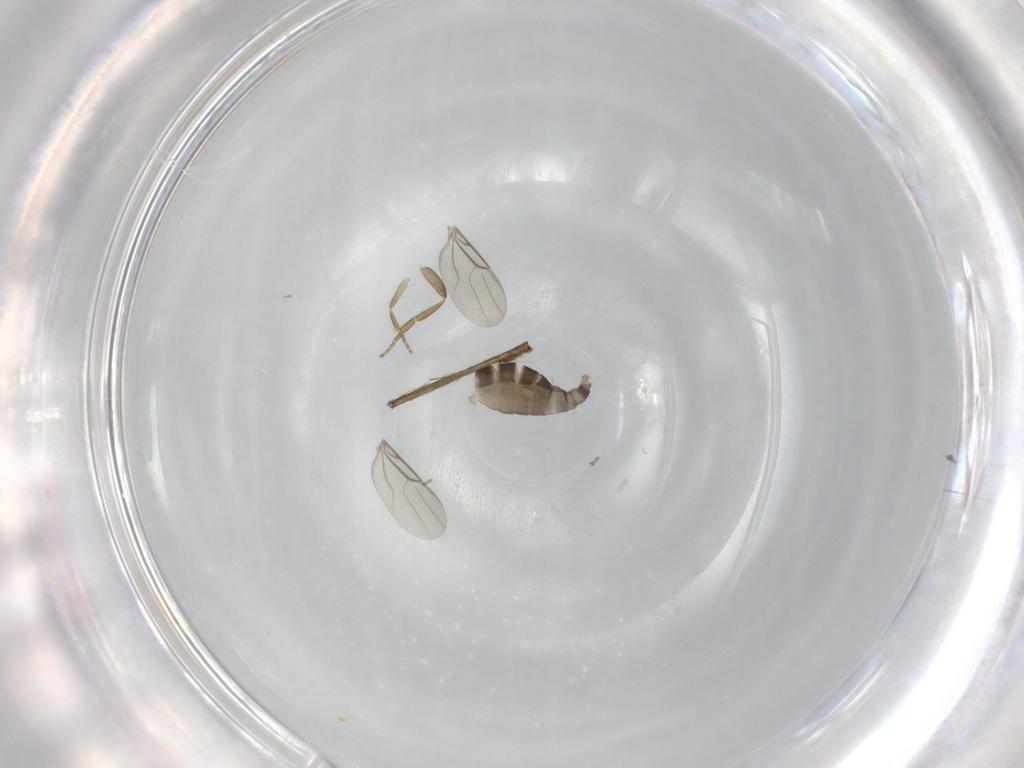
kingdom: Animalia
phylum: Arthropoda
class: Insecta
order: Diptera
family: Phoridae
